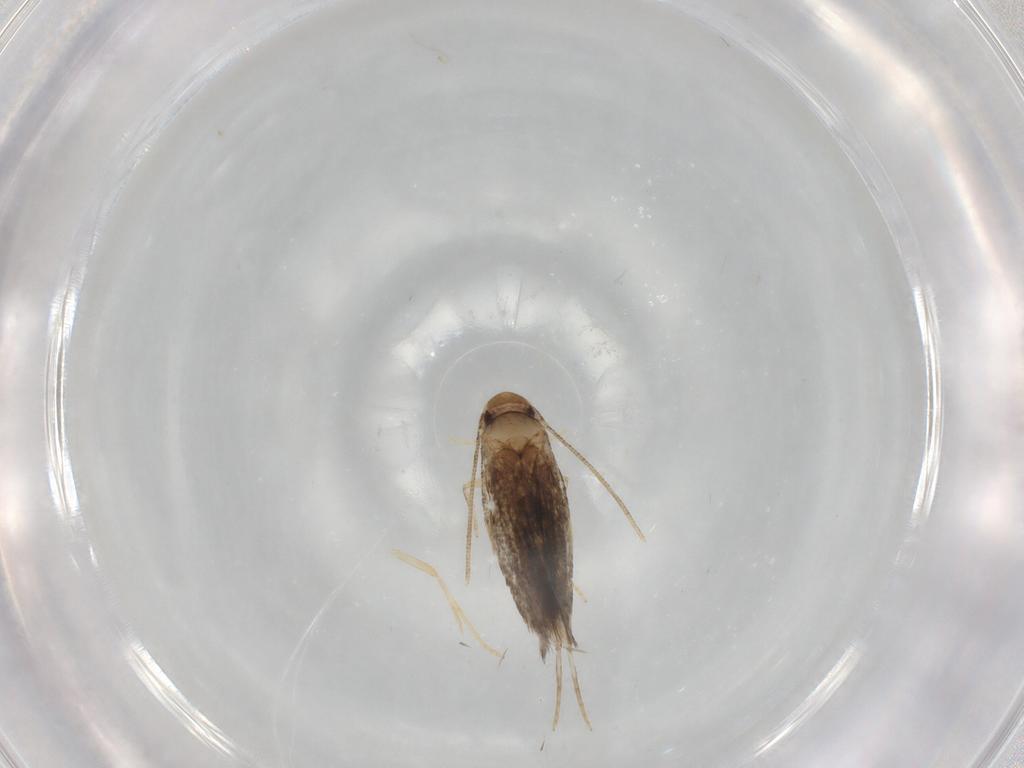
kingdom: Animalia
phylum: Arthropoda
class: Insecta
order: Lepidoptera
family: Gelechiidae
